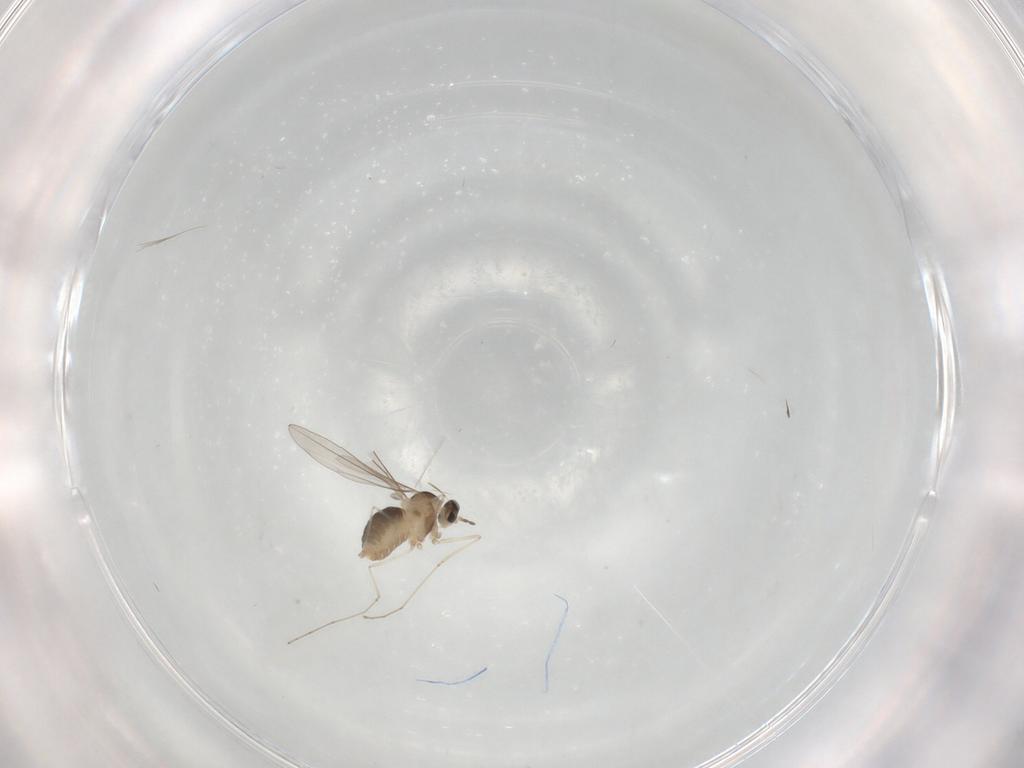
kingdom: Animalia
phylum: Arthropoda
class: Insecta
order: Diptera
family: Cecidomyiidae
